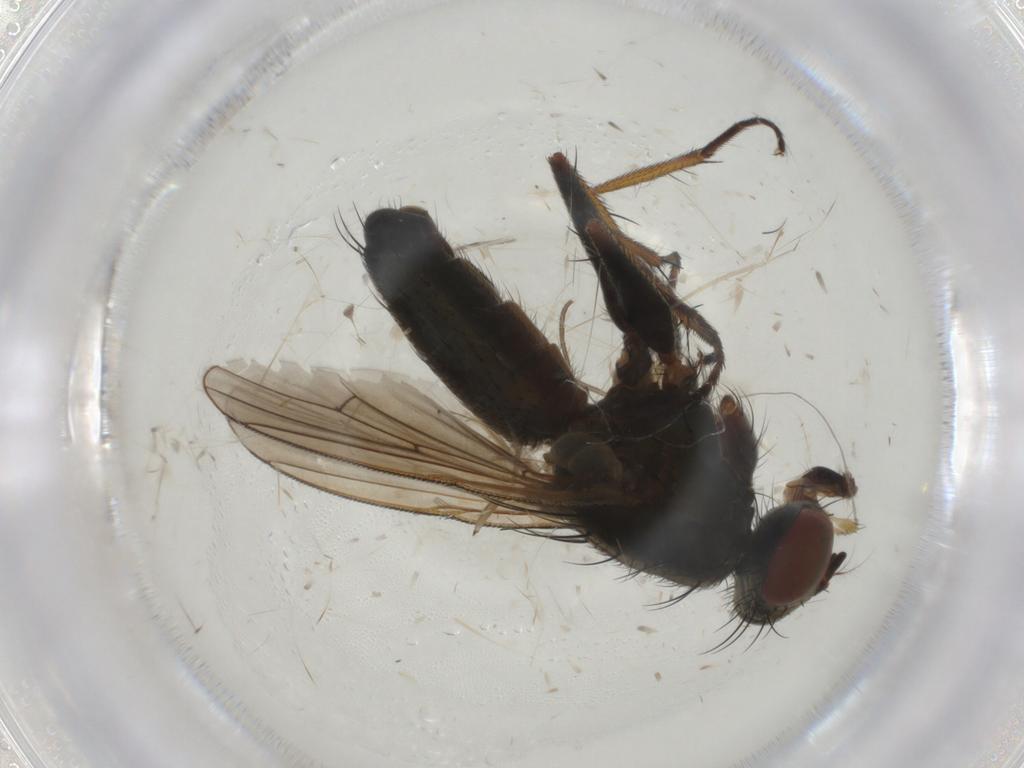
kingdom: Animalia
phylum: Arthropoda
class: Insecta
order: Diptera
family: Muscidae
